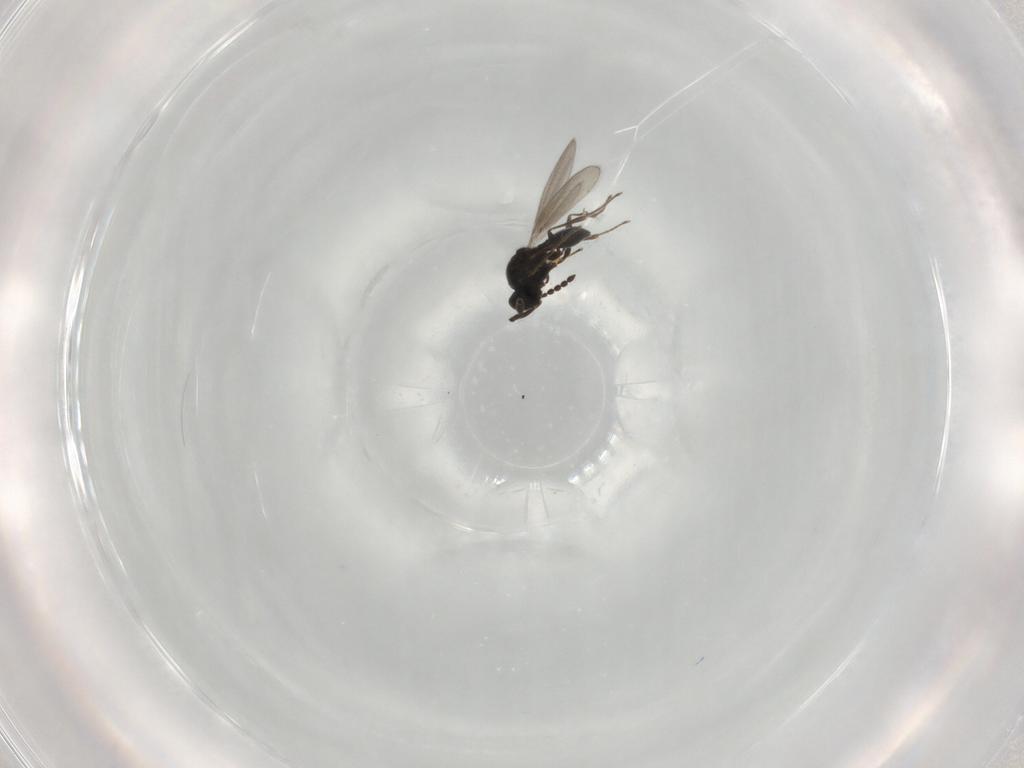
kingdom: Animalia
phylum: Arthropoda
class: Insecta
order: Hymenoptera
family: Platygastridae
